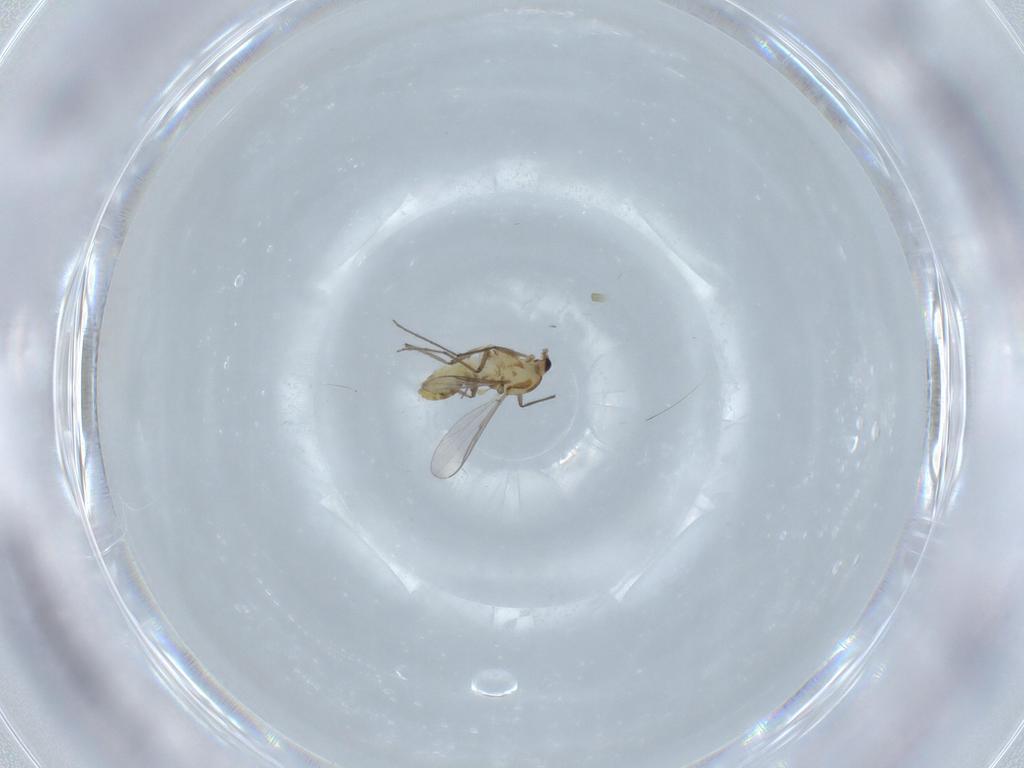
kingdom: Animalia
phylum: Arthropoda
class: Insecta
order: Diptera
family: Chironomidae
